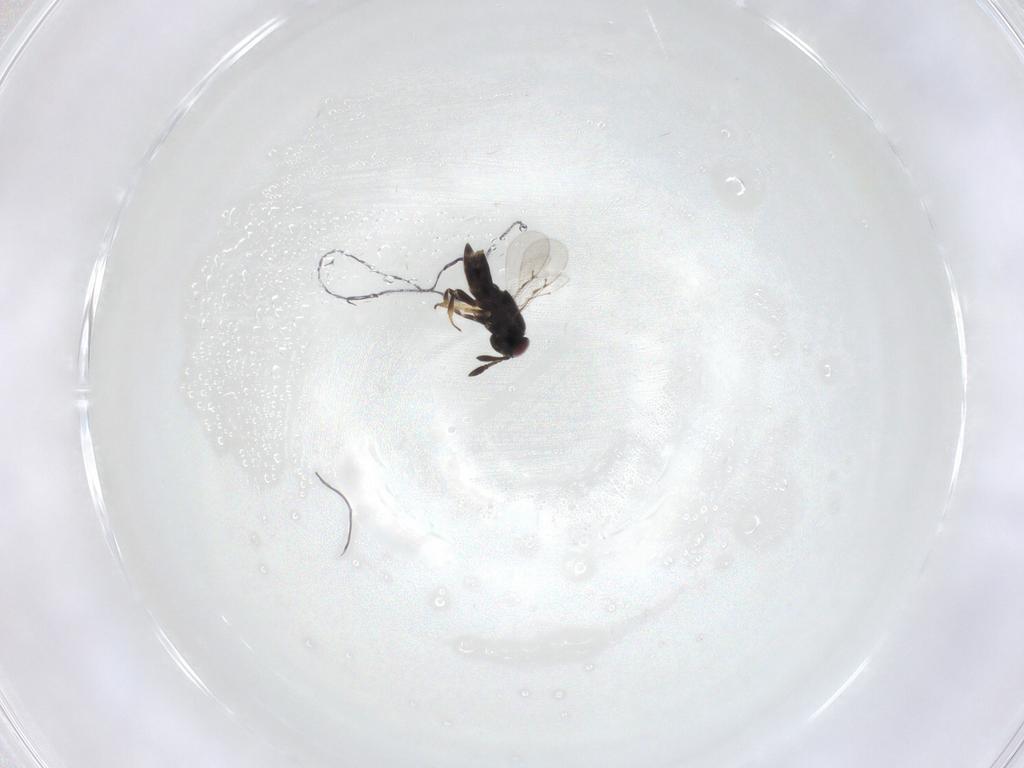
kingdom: Animalia
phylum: Arthropoda
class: Insecta
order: Hymenoptera
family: Aphelinidae
